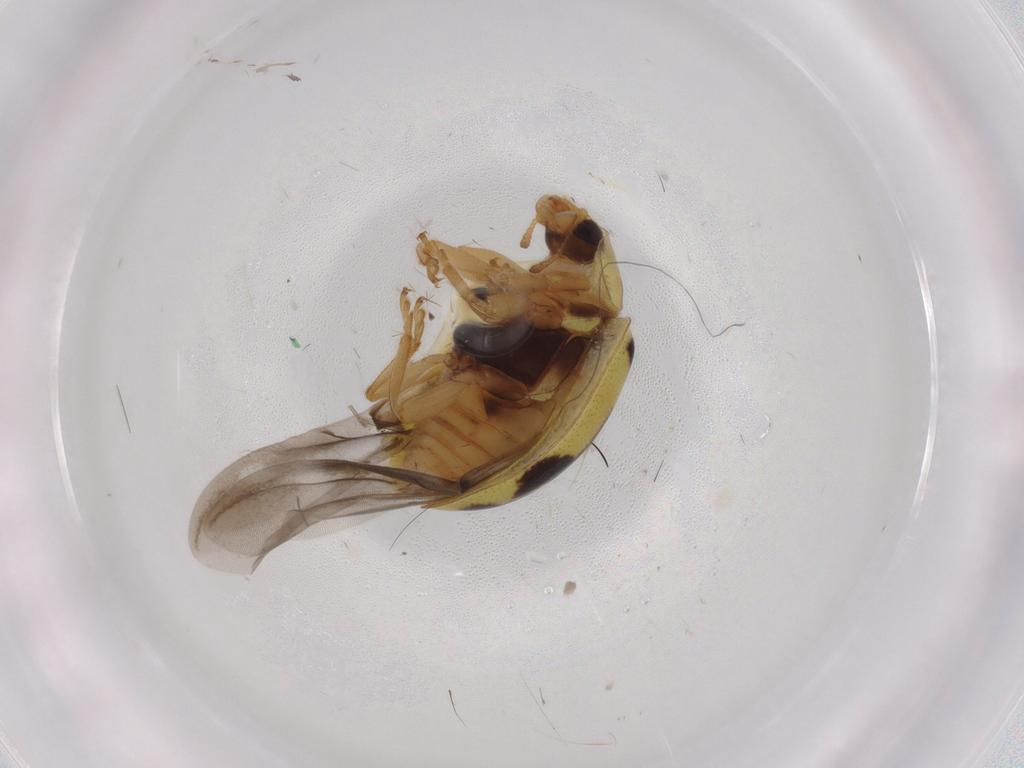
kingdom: Animalia
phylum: Arthropoda
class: Insecta
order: Coleoptera
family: Coccinellidae
